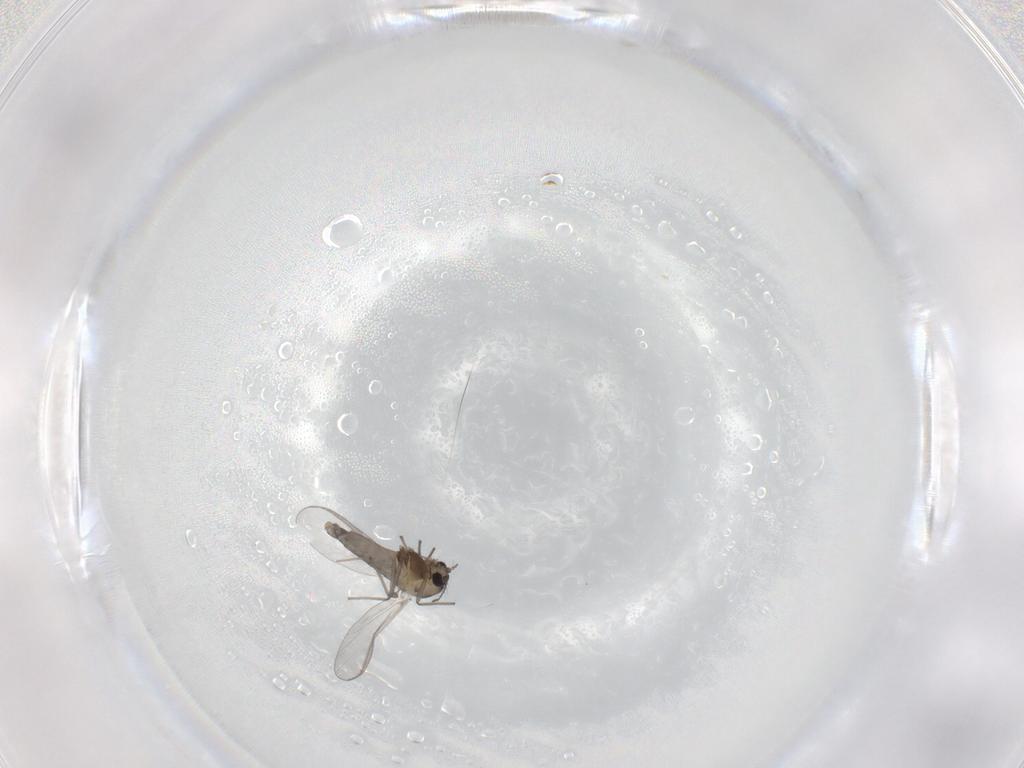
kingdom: Animalia
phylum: Arthropoda
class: Insecta
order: Diptera
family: Chironomidae
